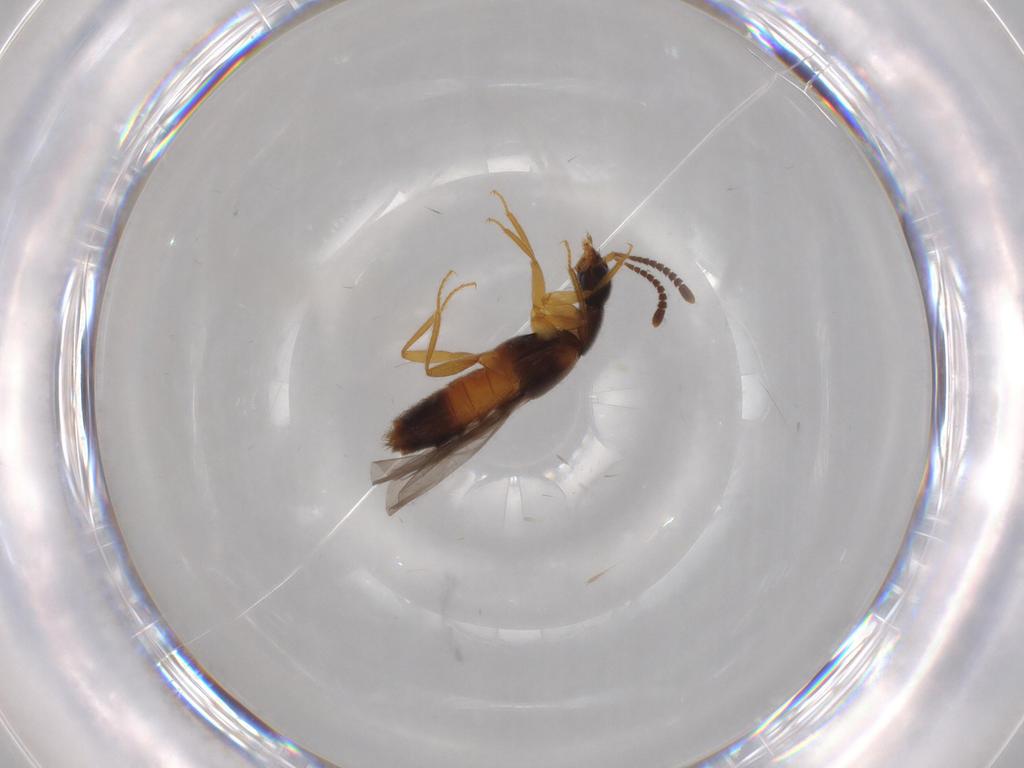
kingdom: Animalia
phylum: Arthropoda
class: Insecta
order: Coleoptera
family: Staphylinidae
